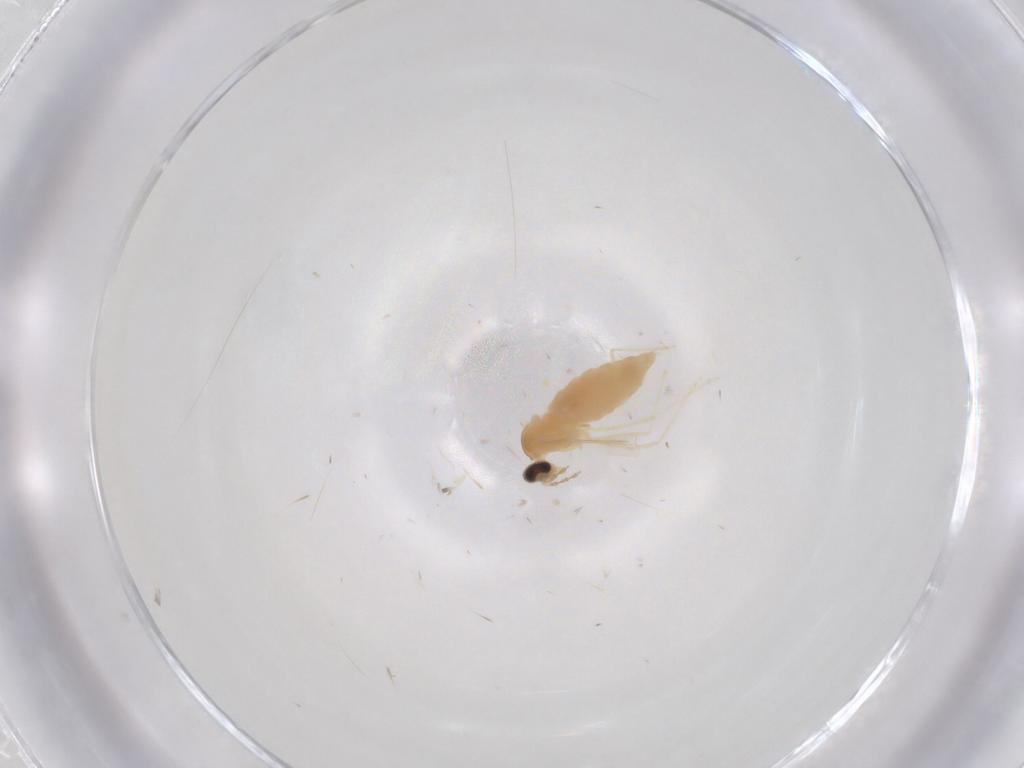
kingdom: Animalia
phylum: Arthropoda
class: Insecta
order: Diptera
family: Cecidomyiidae
